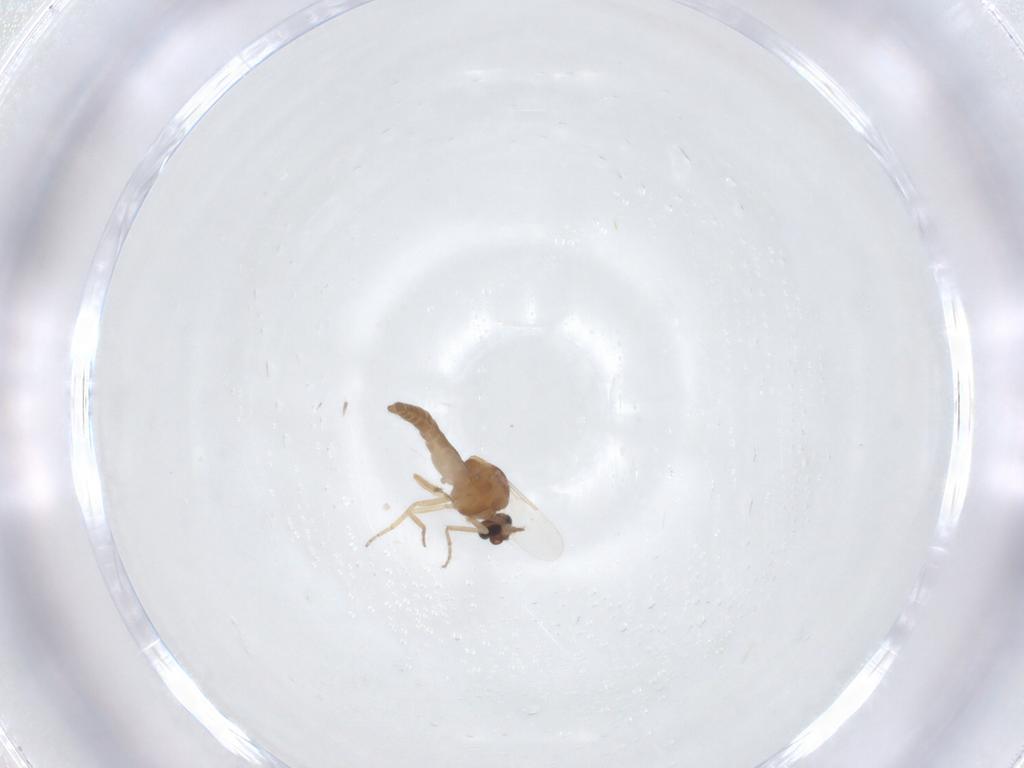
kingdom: Animalia
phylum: Arthropoda
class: Insecta
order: Diptera
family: Ceratopogonidae
